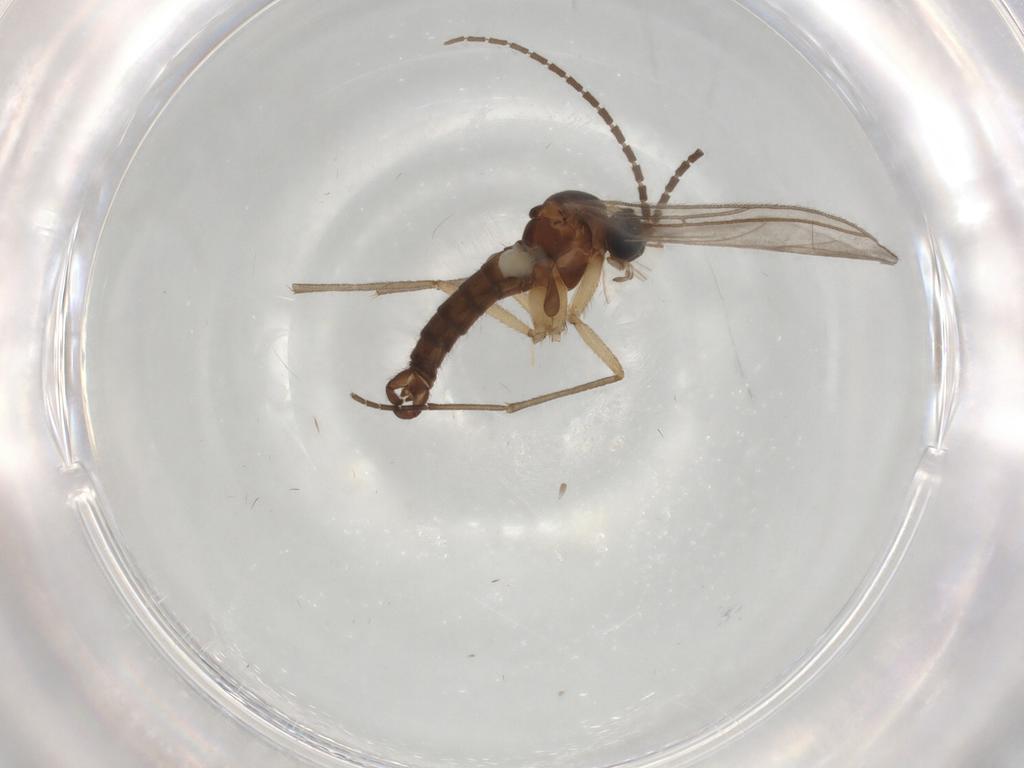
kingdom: Animalia
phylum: Arthropoda
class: Insecta
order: Diptera
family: Sciaridae
